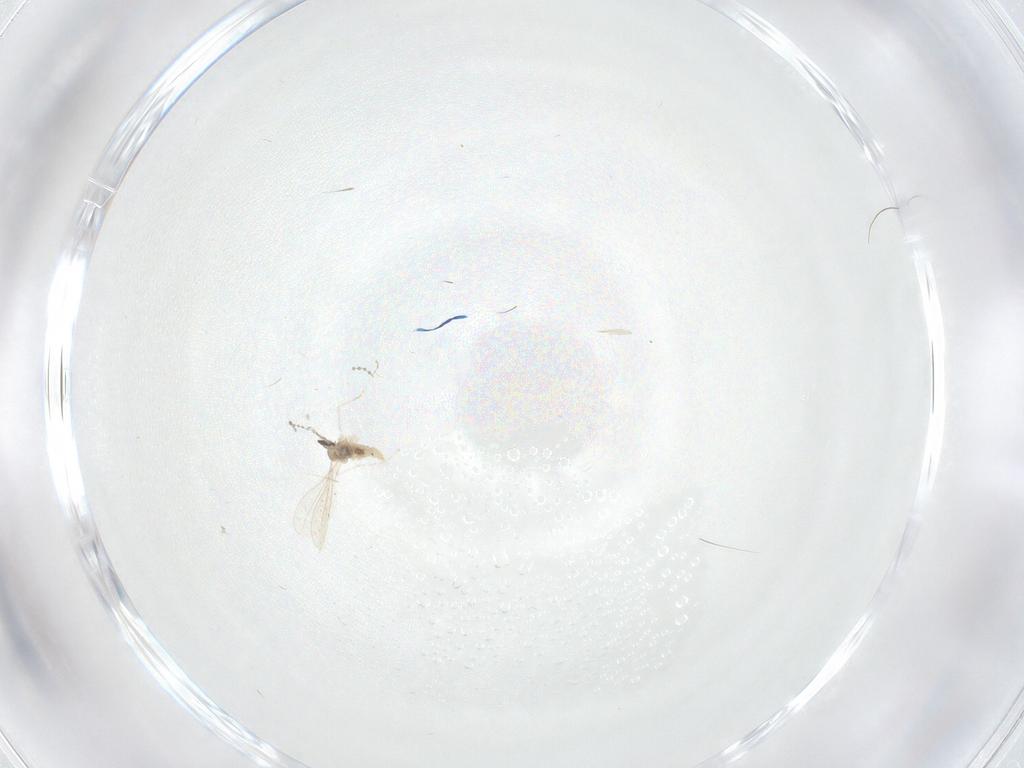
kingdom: Animalia
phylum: Arthropoda
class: Insecta
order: Diptera
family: Cecidomyiidae
